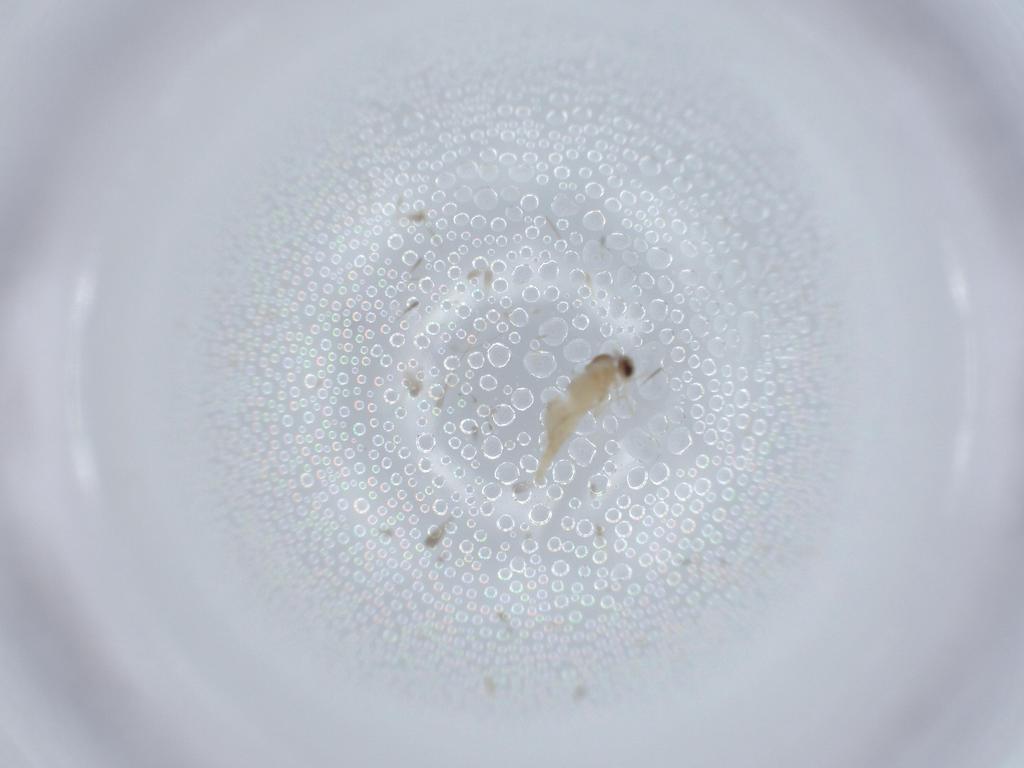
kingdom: Animalia
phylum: Arthropoda
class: Insecta
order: Diptera
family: Cecidomyiidae
